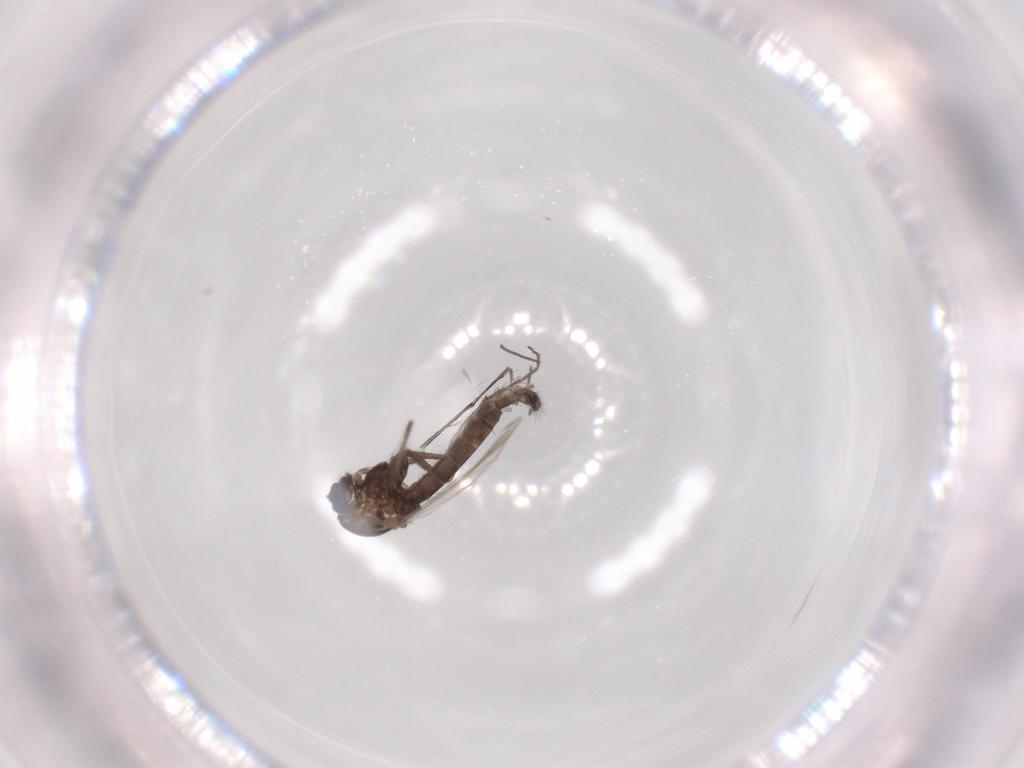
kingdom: Animalia
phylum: Arthropoda
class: Insecta
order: Diptera
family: Chironomidae
